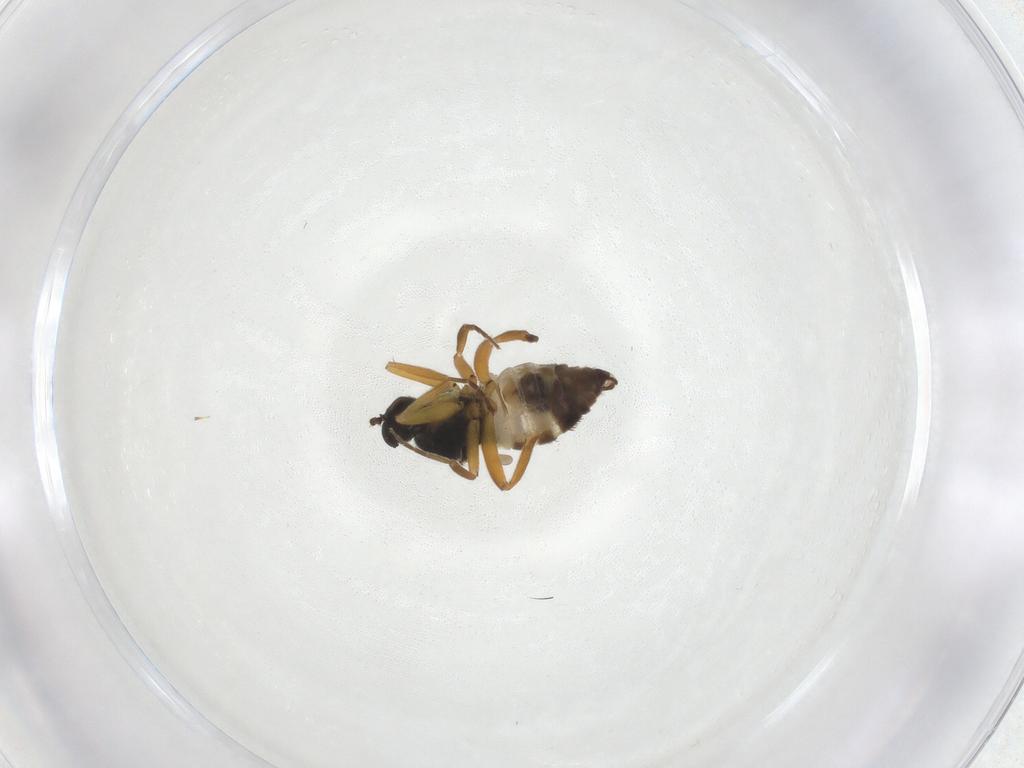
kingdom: Animalia
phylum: Arthropoda
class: Insecta
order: Diptera
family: Hybotidae
